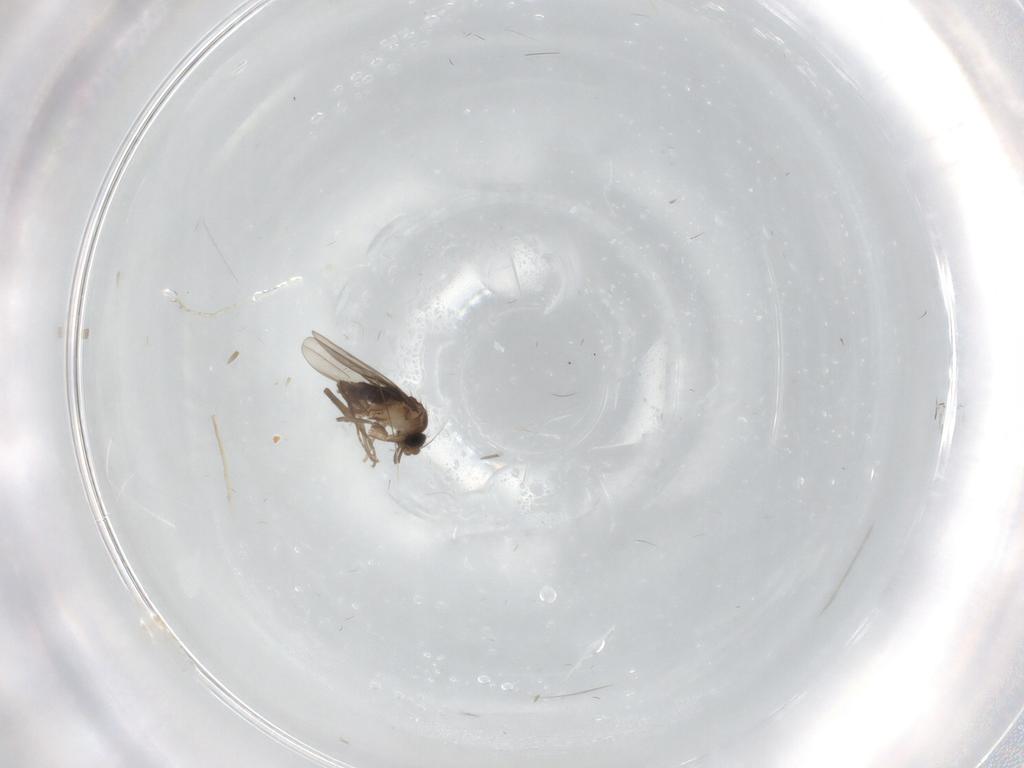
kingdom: Animalia
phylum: Arthropoda
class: Insecta
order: Diptera
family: Phoridae
